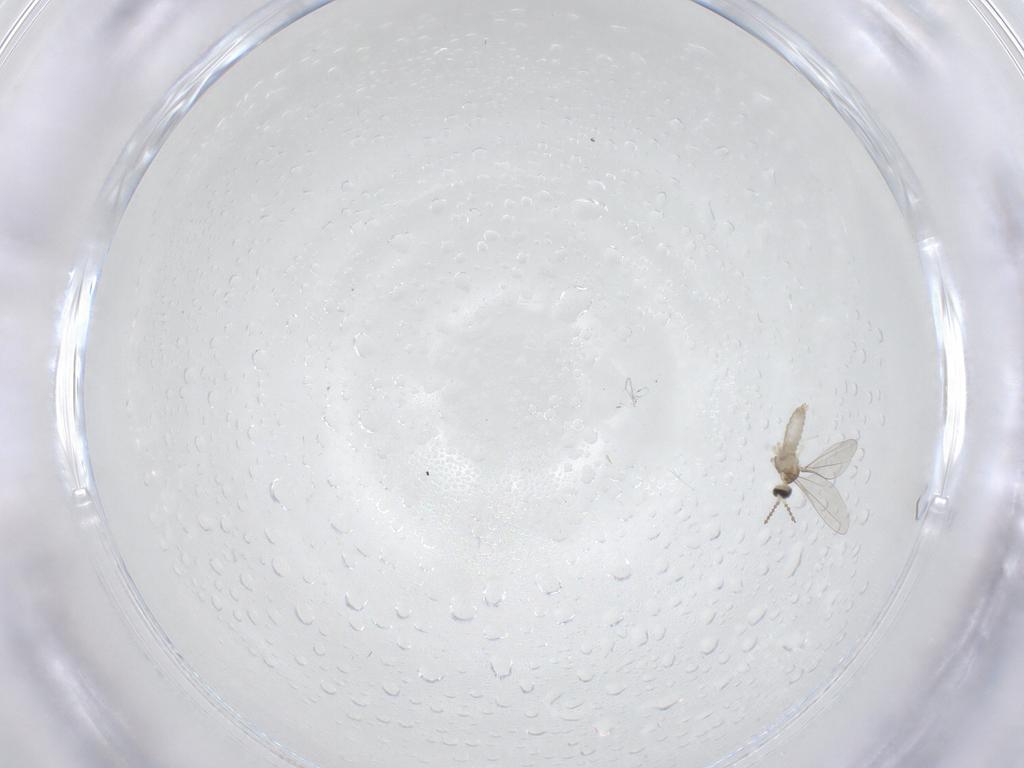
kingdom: Animalia
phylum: Arthropoda
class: Insecta
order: Diptera
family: Cecidomyiidae
